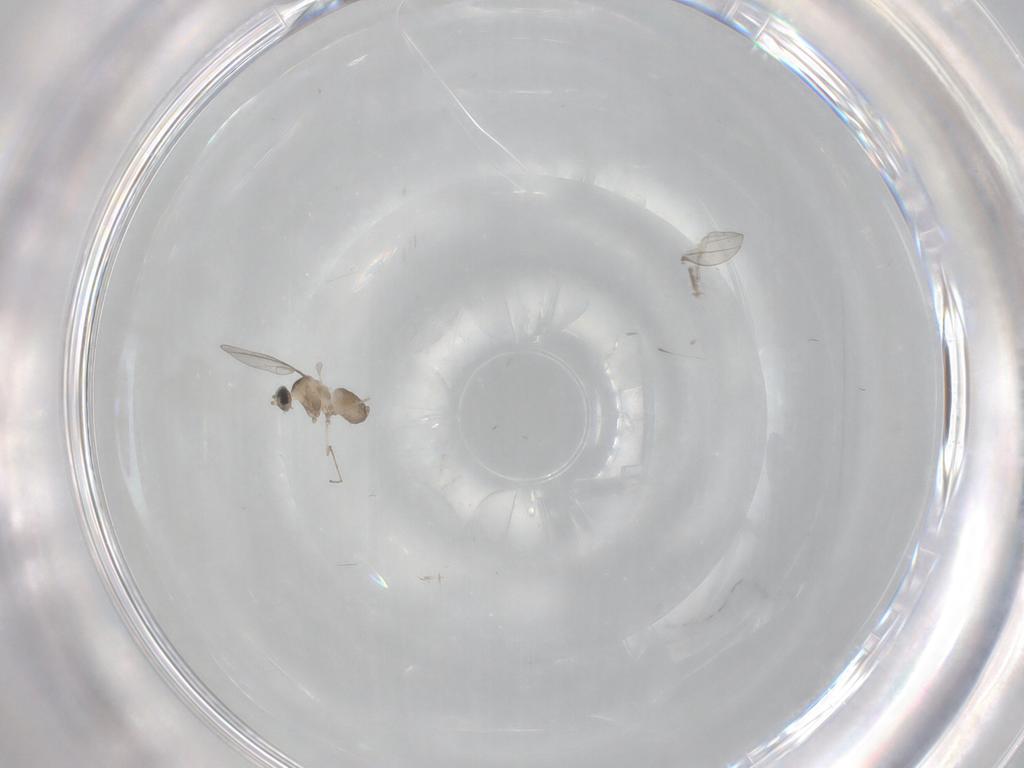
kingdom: Animalia
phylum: Arthropoda
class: Insecta
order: Diptera
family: Cecidomyiidae
